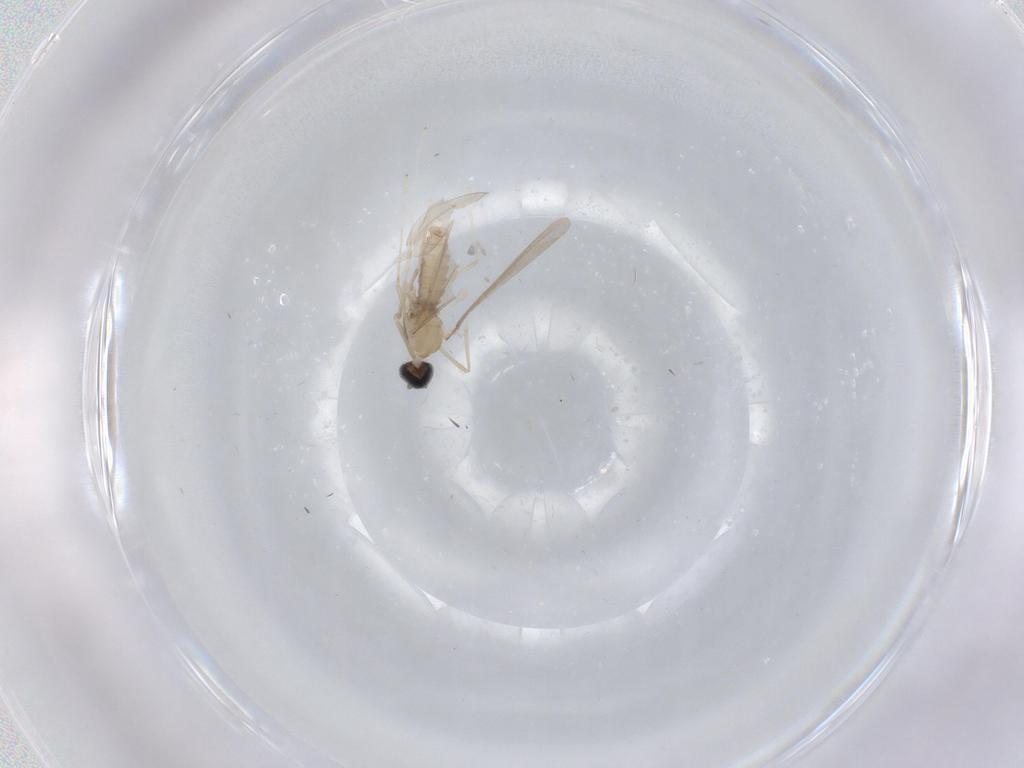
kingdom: Animalia
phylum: Arthropoda
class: Insecta
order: Diptera
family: Cecidomyiidae
